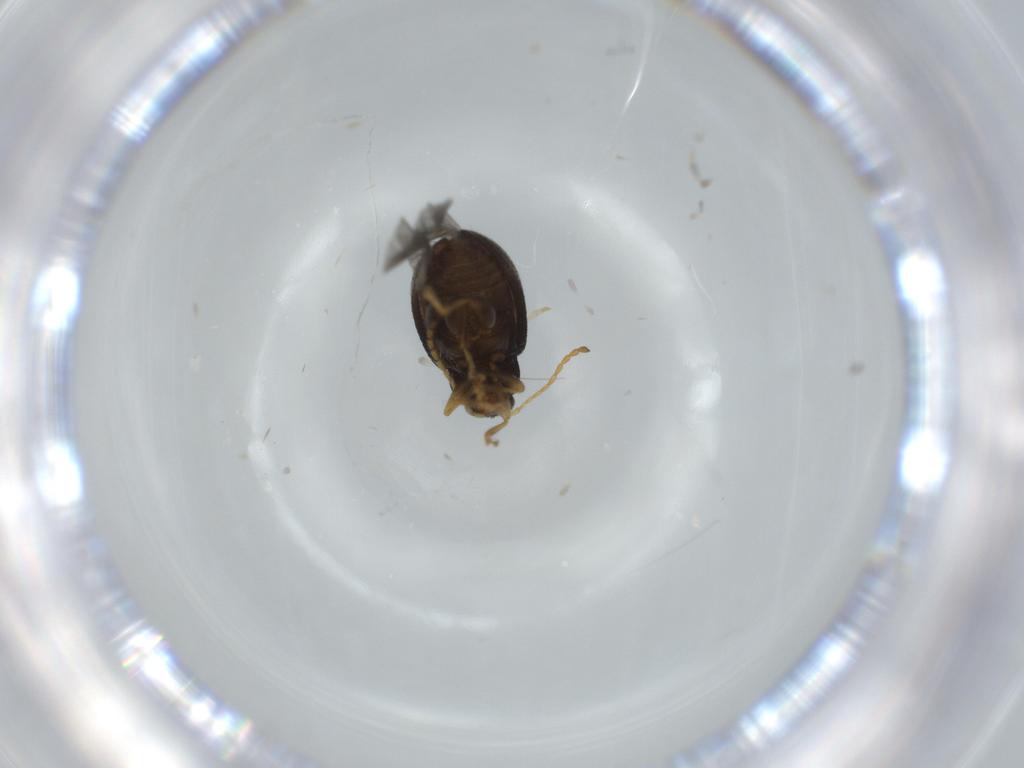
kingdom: Animalia
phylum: Arthropoda
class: Insecta
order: Coleoptera
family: Chrysomelidae
